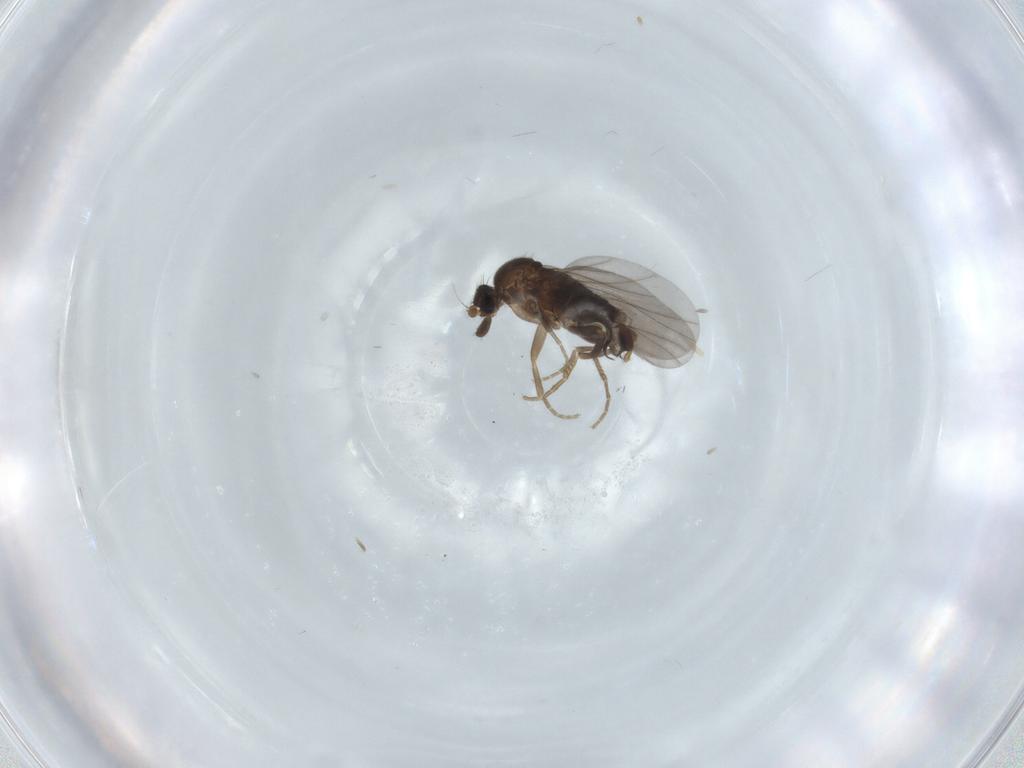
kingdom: Animalia
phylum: Arthropoda
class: Insecta
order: Diptera
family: Phoridae
